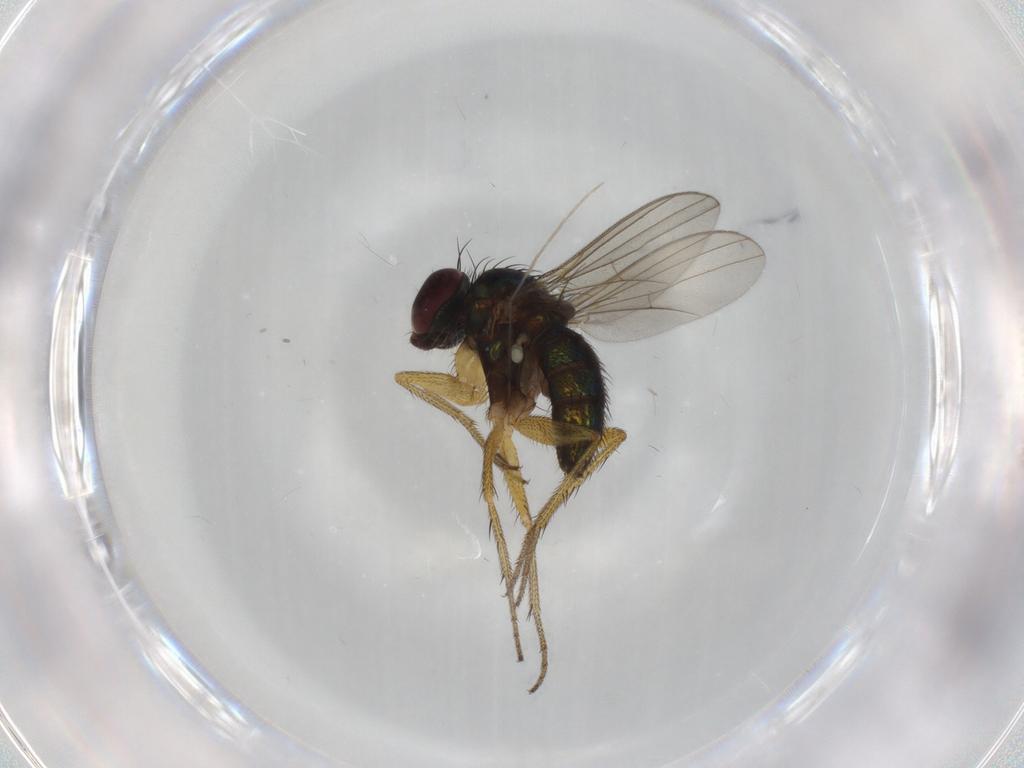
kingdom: Animalia
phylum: Arthropoda
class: Insecta
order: Diptera
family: Chironomidae
